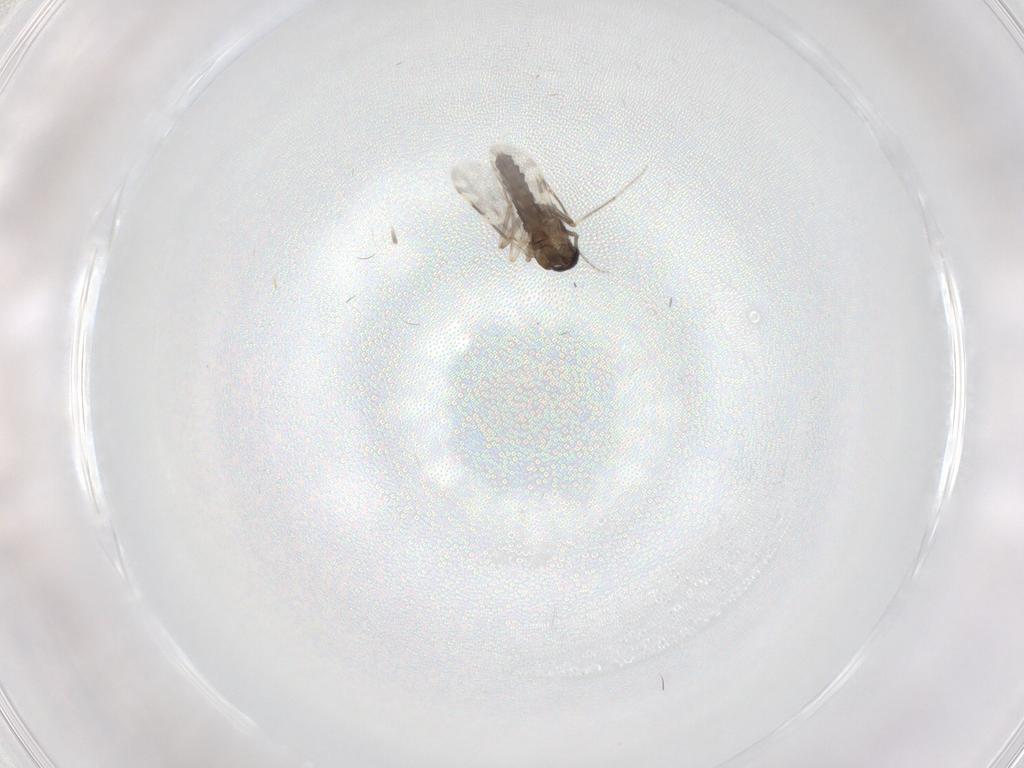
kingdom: Animalia
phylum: Arthropoda
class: Insecta
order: Diptera
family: Ceratopogonidae
